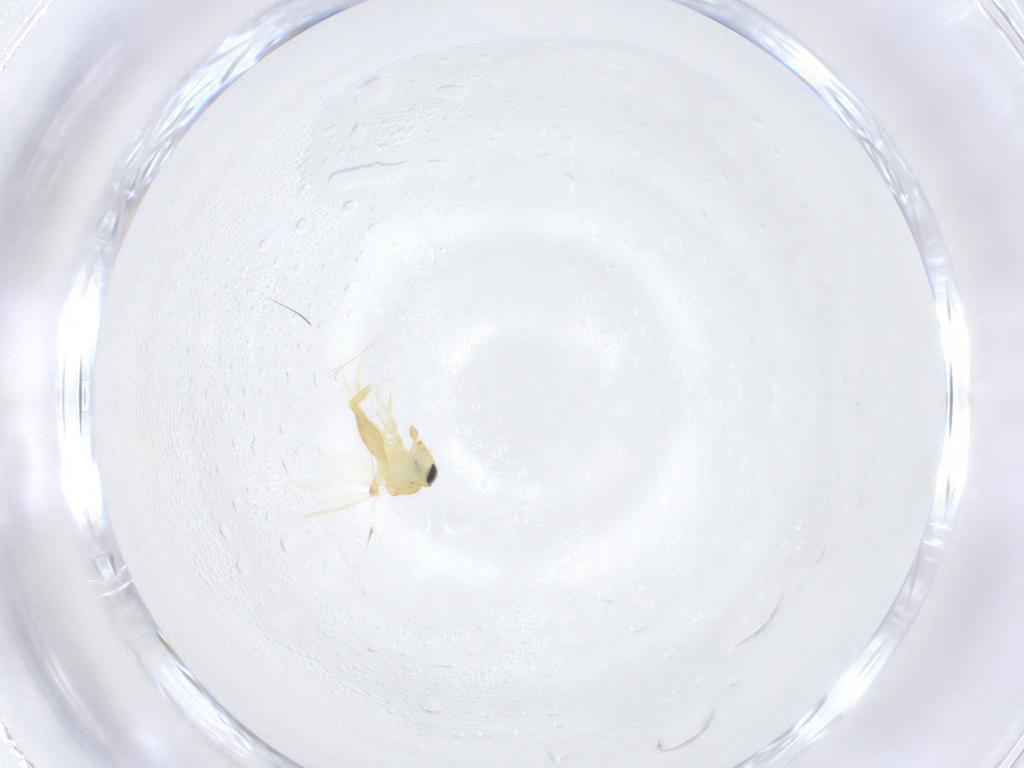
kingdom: Animalia
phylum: Arthropoda
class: Insecta
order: Hymenoptera
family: Scelionidae
